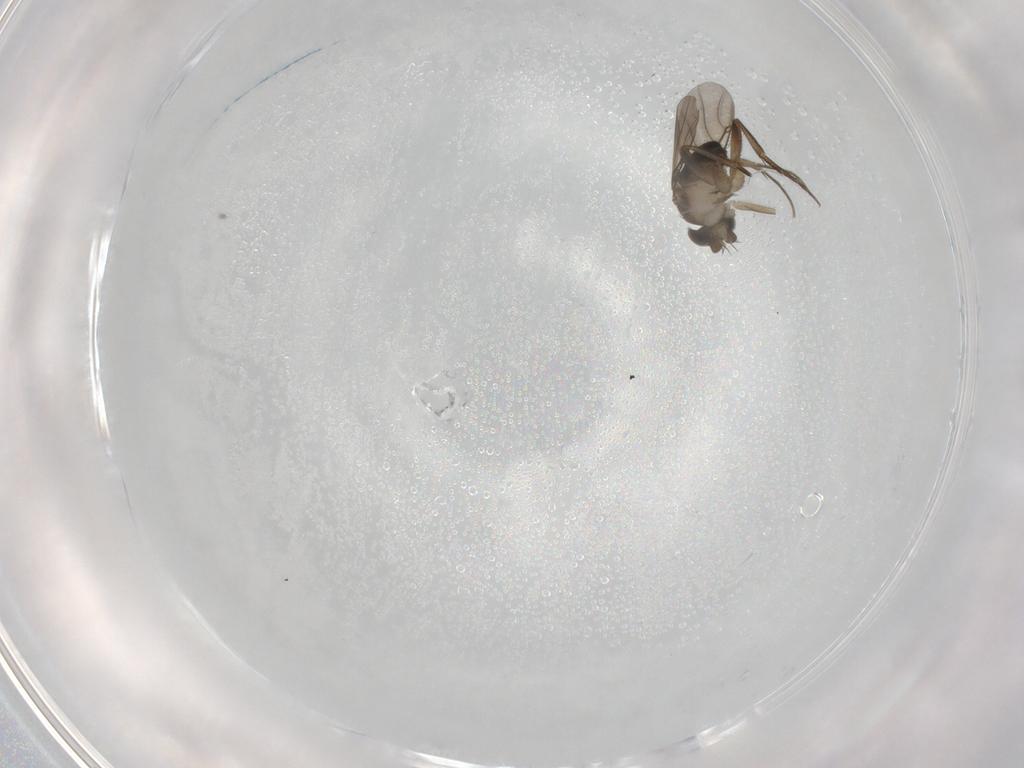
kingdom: Animalia
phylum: Arthropoda
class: Insecta
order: Diptera
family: Phoridae
